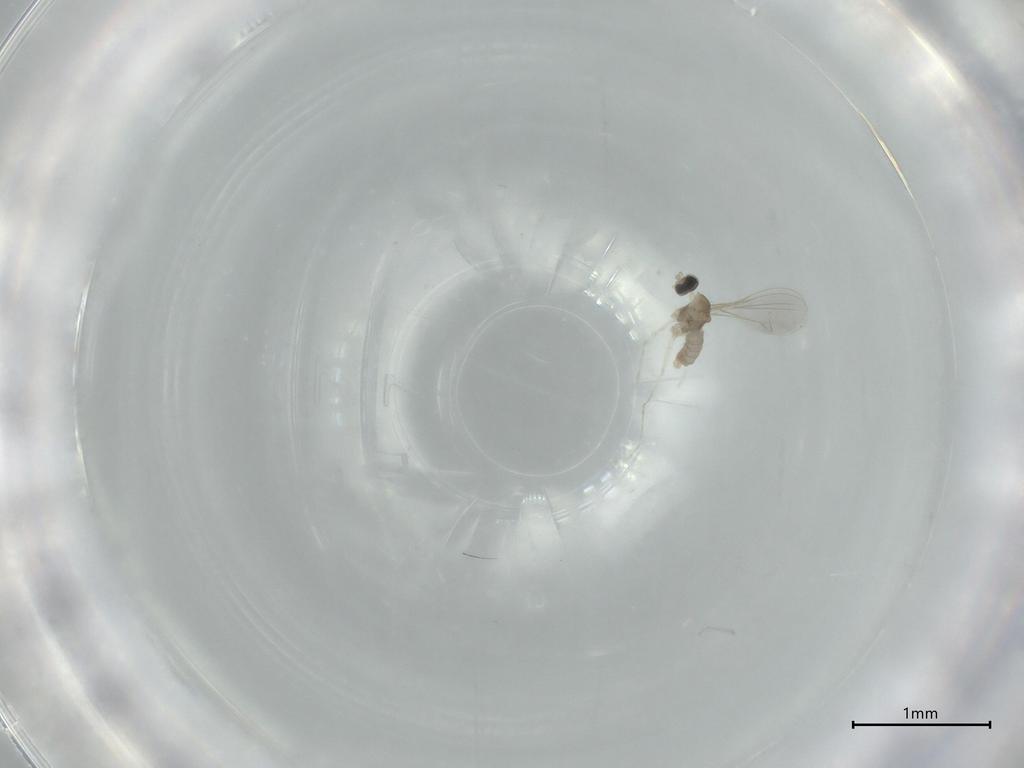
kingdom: Animalia
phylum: Arthropoda
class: Insecta
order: Diptera
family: Cecidomyiidae
